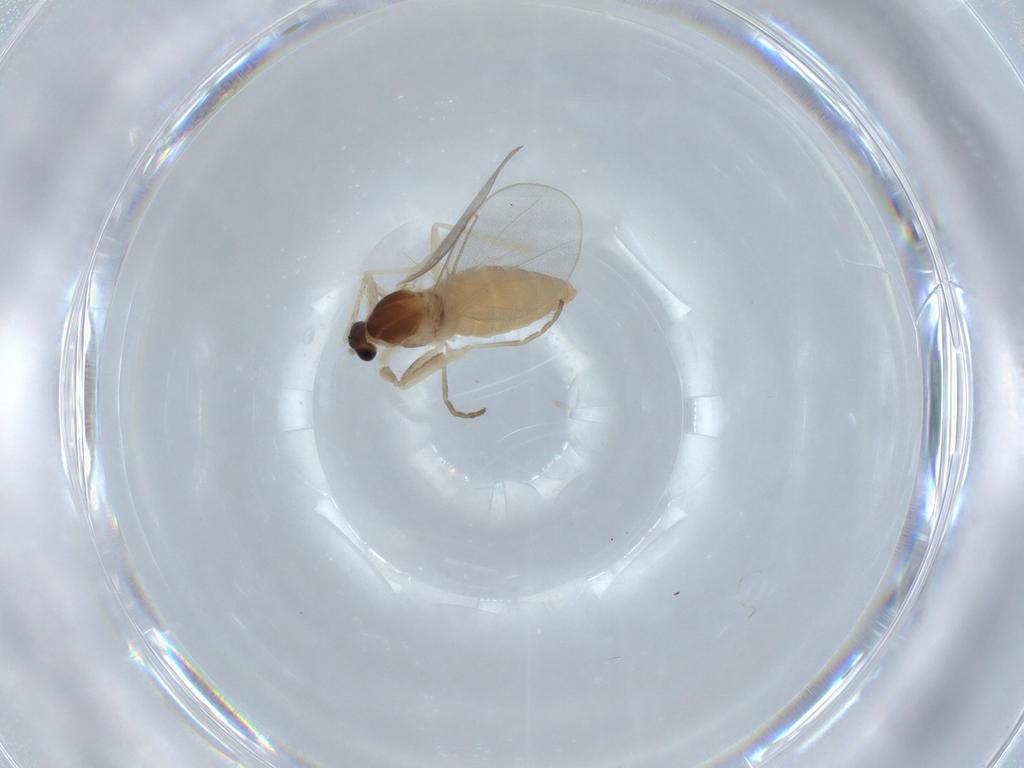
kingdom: Animalia
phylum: Arthropoda
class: Insecta
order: Diptera
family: Cecidomyiidae
